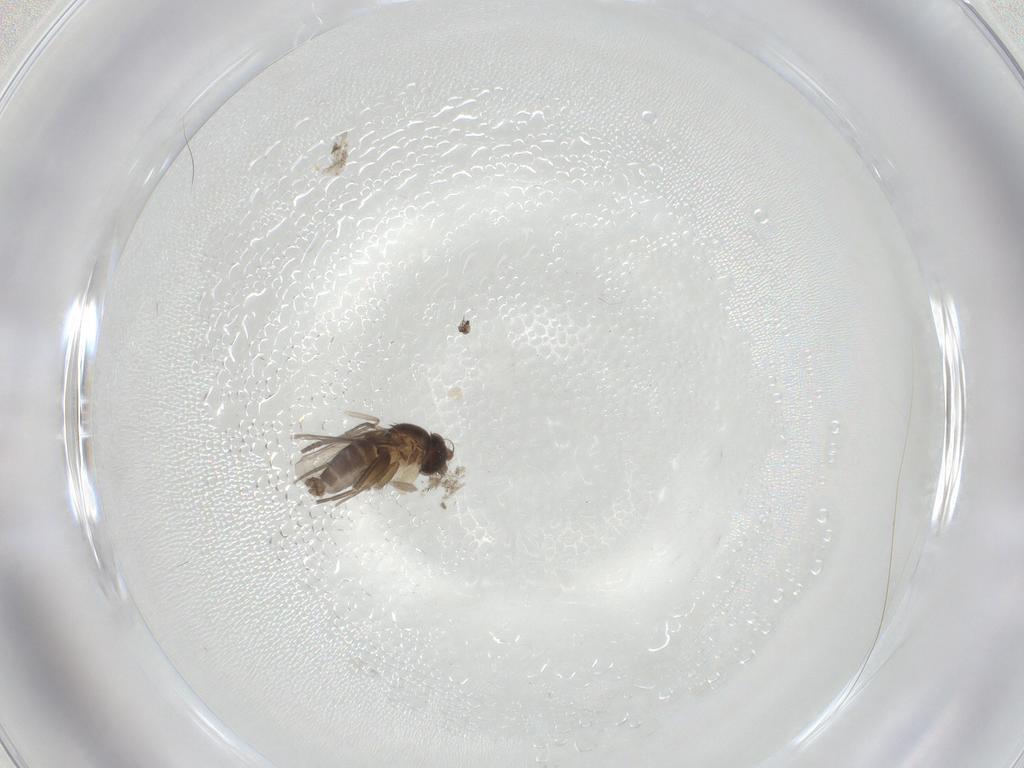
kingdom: Animalia
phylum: Arthropoda
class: Insecta
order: Diptera
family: Phoridae
